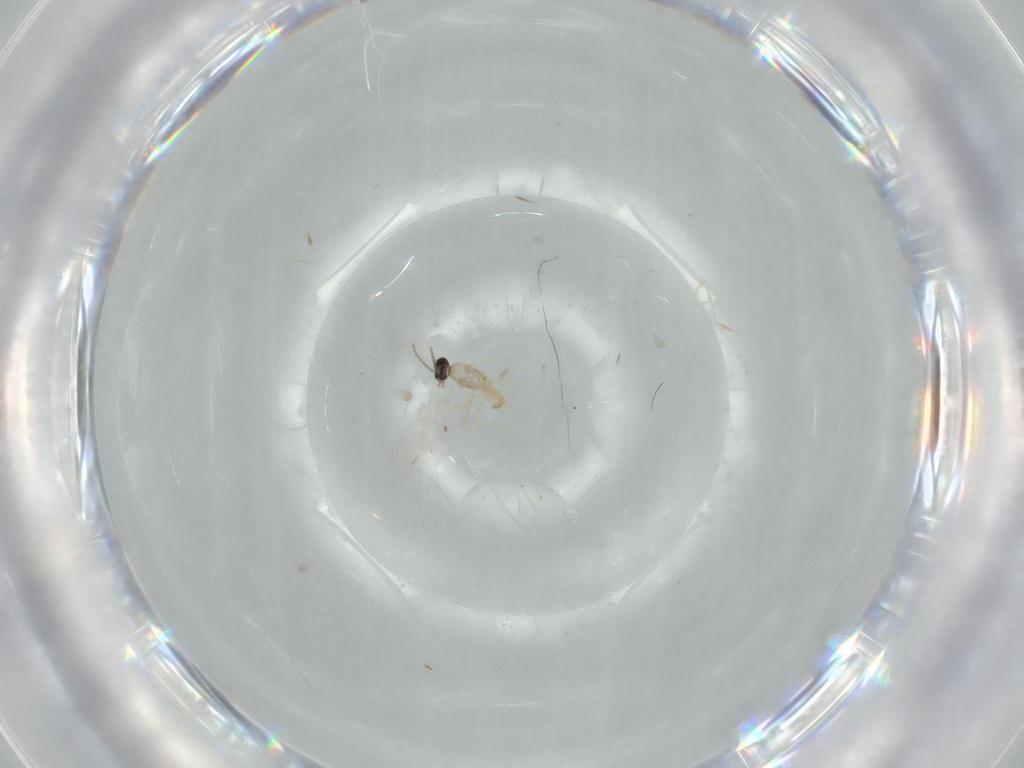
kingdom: Animalia
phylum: Arthropoda
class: Insecta
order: Diptera
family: Cecidomyiidae
